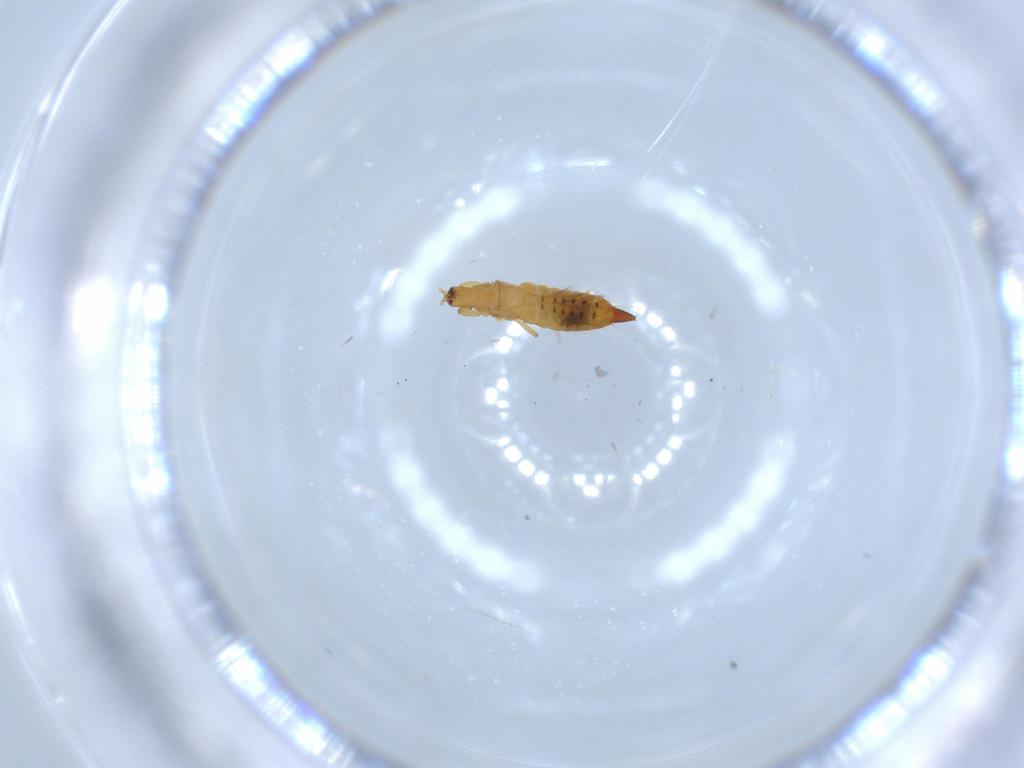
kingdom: Animalia
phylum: Arthropoda
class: Insecta
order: Thysanoptera
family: Phlaeothripidae
